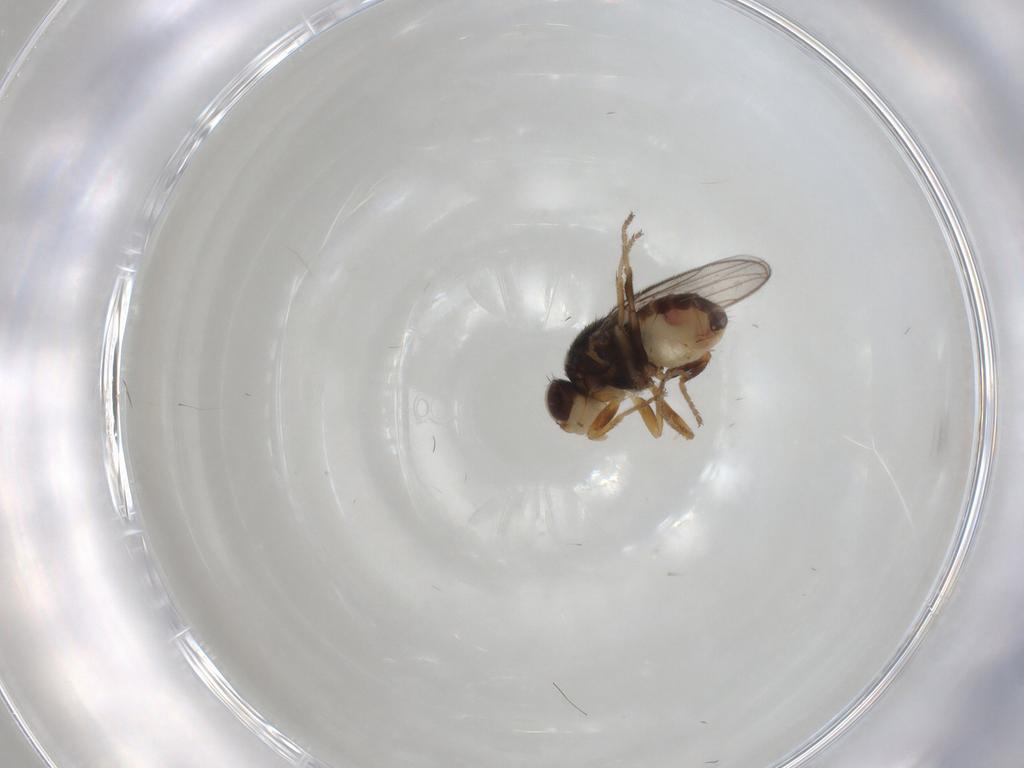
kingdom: Animalia
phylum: Arthropoda
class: Insecta
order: Diptera
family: Chloropidae
